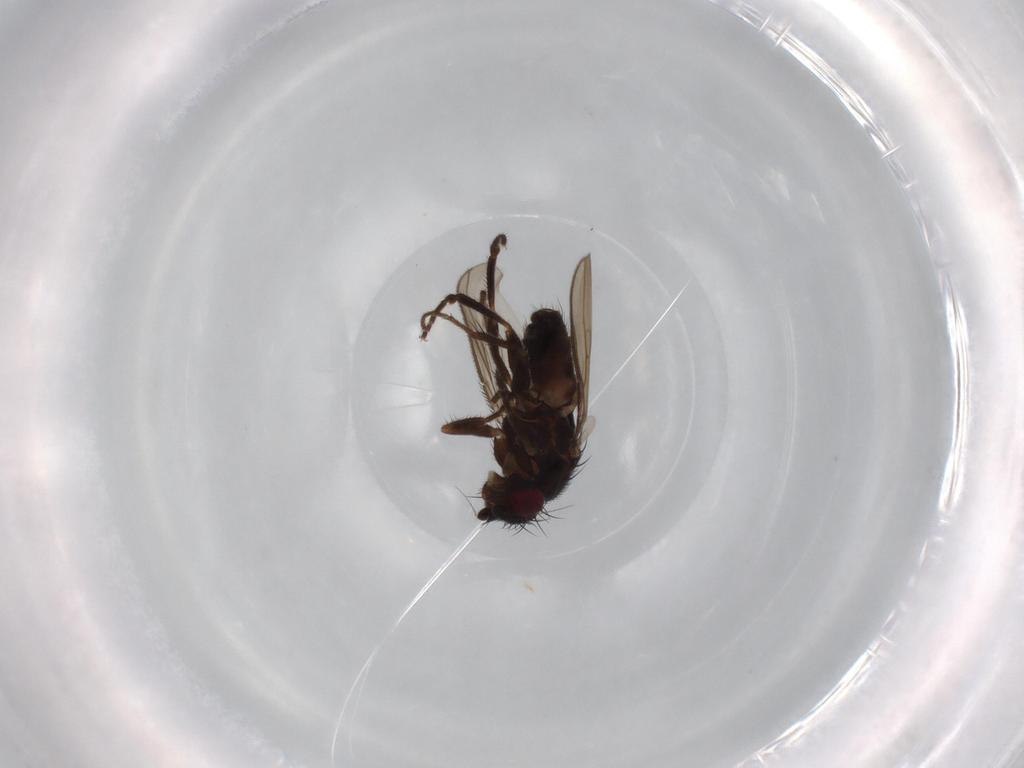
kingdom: Animalia
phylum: Arthropoda
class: Insecta
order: Diptera
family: Sphaeroceridae
